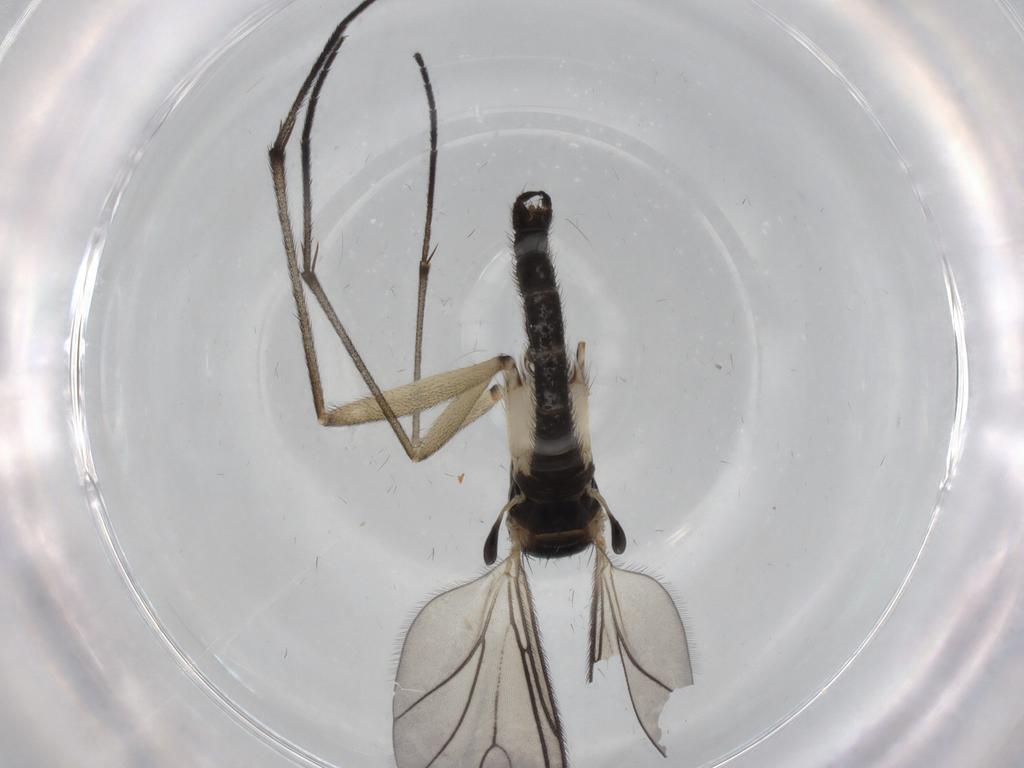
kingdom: Animalia
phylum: Arthropoda
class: Insecta
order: Diptera
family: Sciaridae
